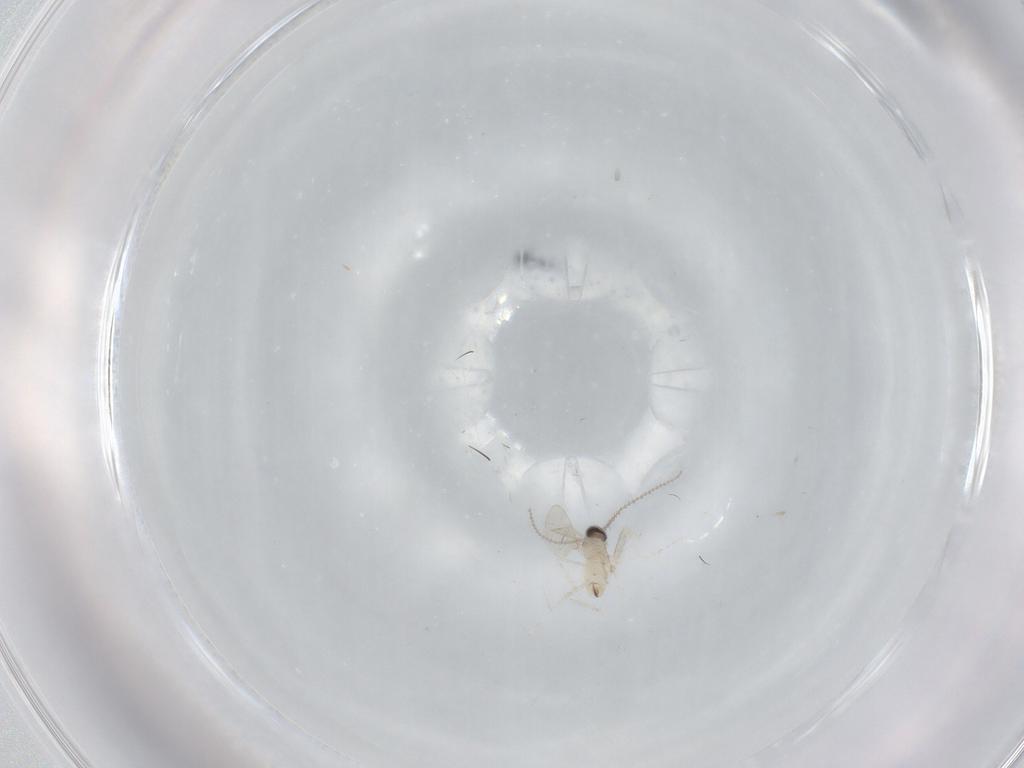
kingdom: Animalia
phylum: Arthropoda
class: Insecta
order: Diptera
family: Cecidomyiidae
